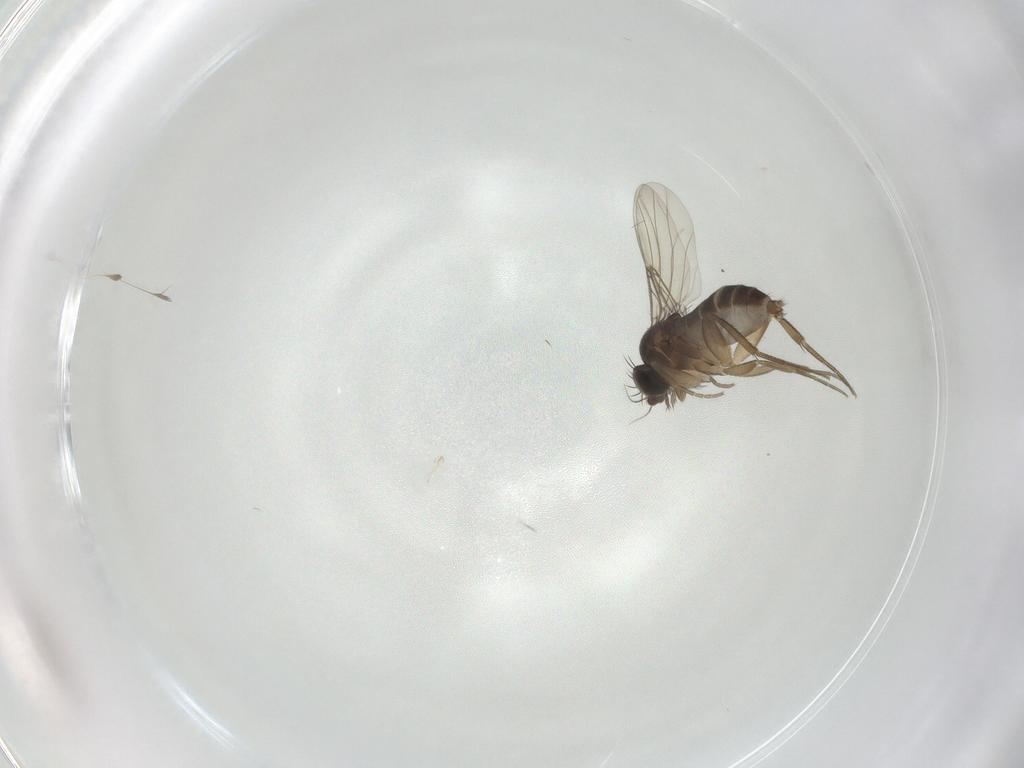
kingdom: Animalia
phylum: Arthropoda
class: Insecta
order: Diptera
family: Phoridae
